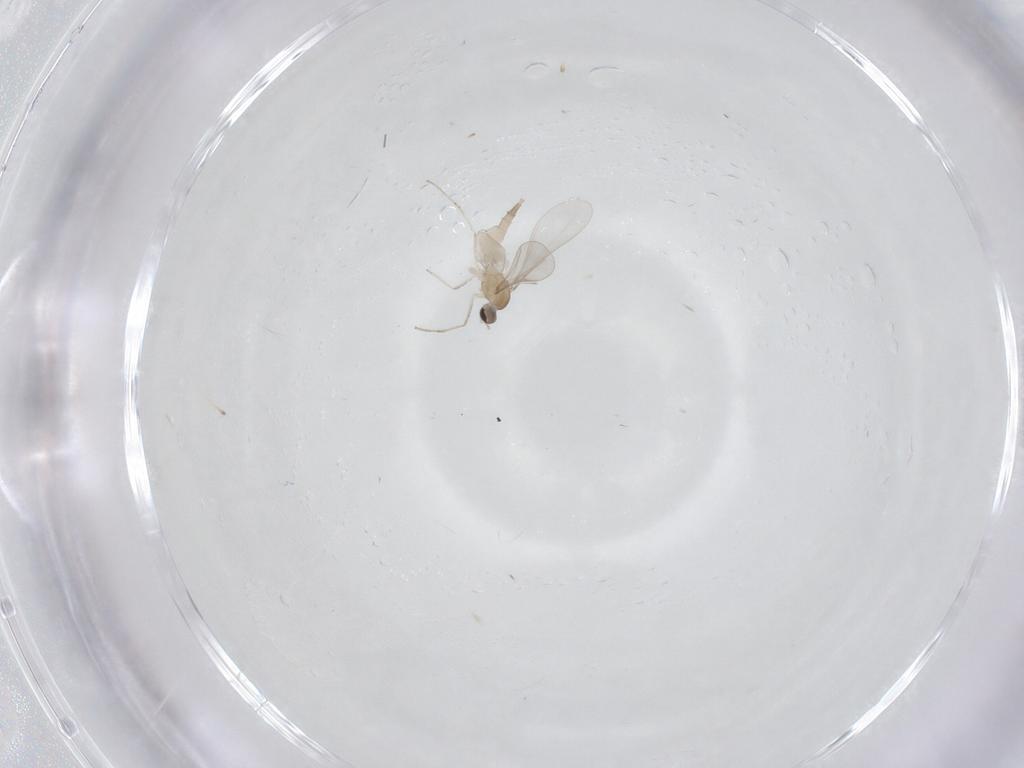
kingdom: Animalia
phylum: Arthropoda
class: Insecta
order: Diptera
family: Cecidomyiidae
